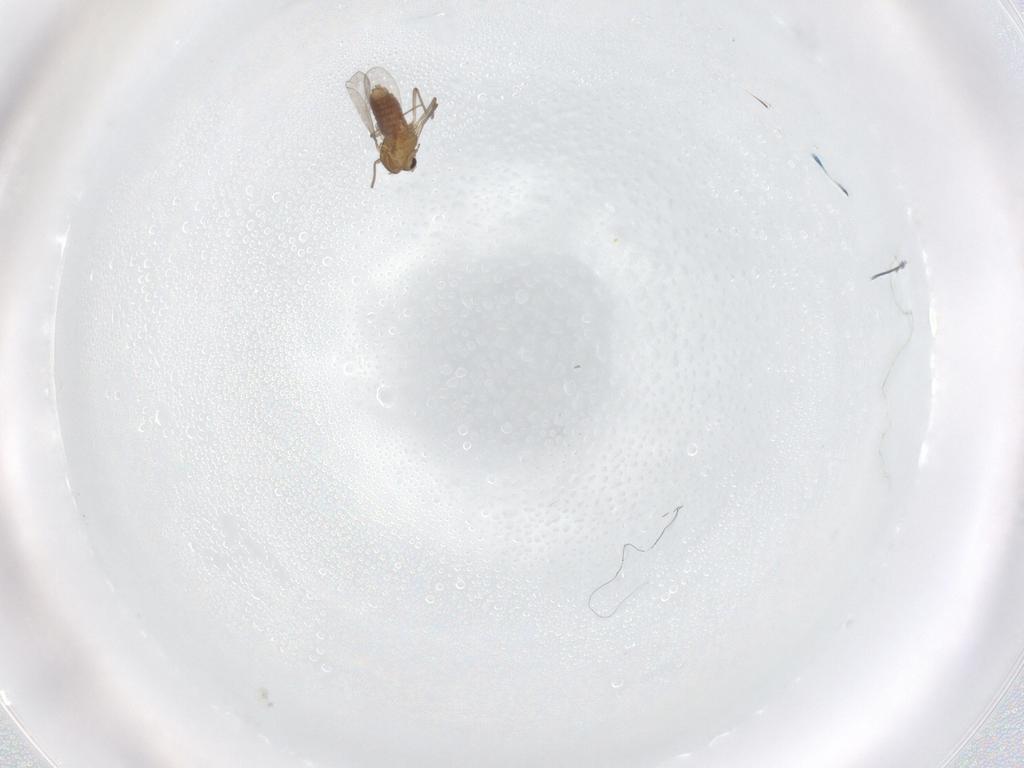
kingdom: Animalia
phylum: Arthropoda
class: Insecta
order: Diptera
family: Chironomidae
